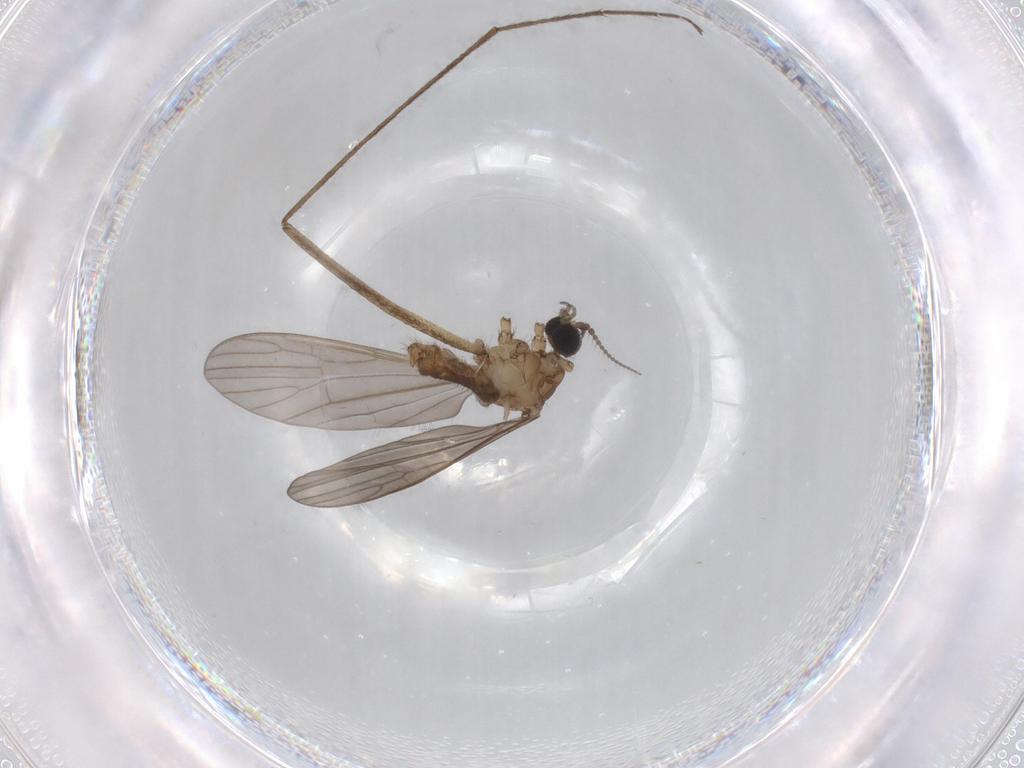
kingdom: Animalia
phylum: Arthropoda
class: Insecta
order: Diptera
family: Limoniidae
